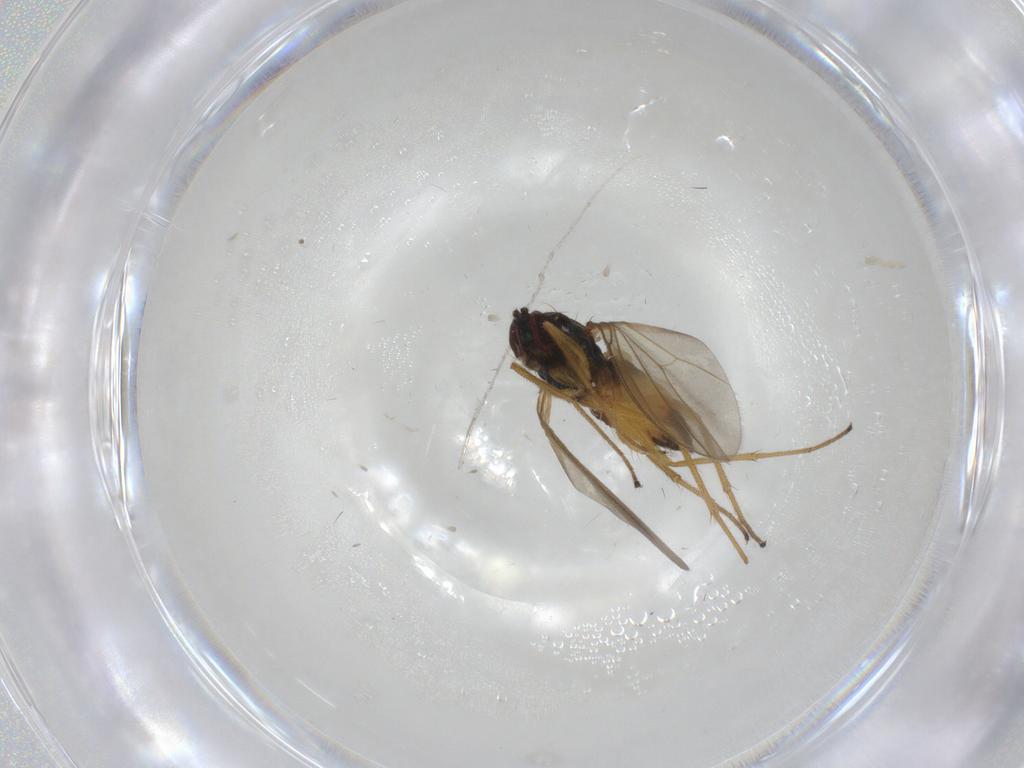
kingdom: Animalia
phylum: Arthropoda
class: Insecta
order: Diptera
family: Dolichopodidae
